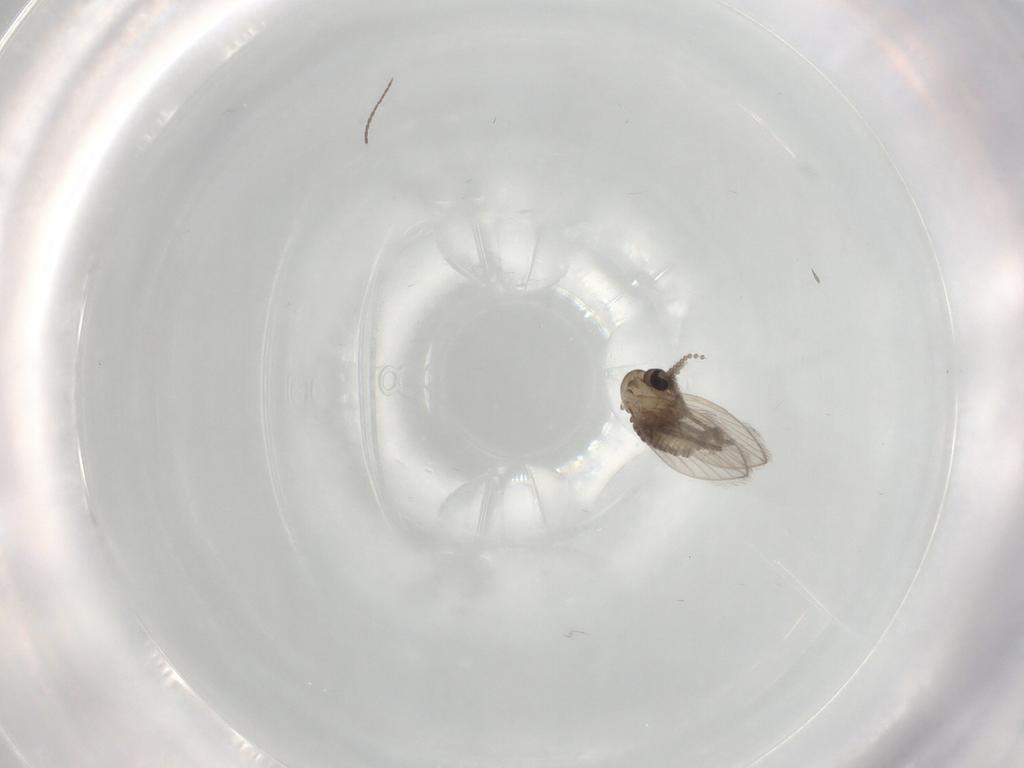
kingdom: Animalia
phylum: Arthropoda
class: Insecta
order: Diptera
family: Psychodidae
